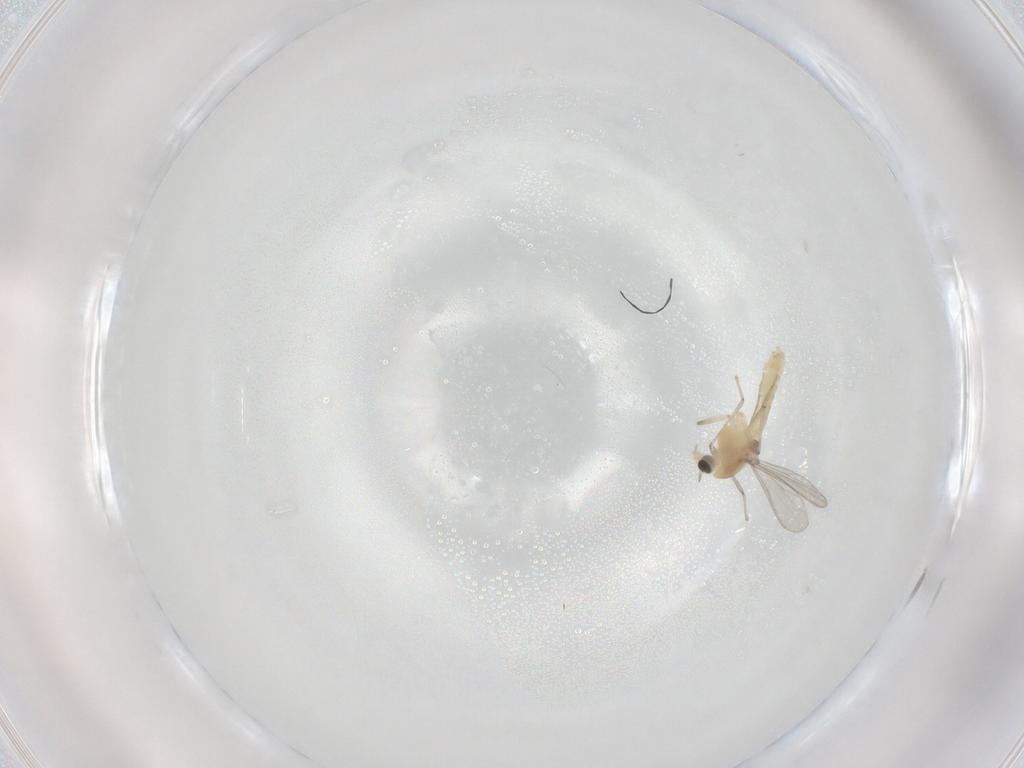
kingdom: Animalia
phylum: Arthropoda
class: Insecta
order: Diptera
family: Sciaridae
